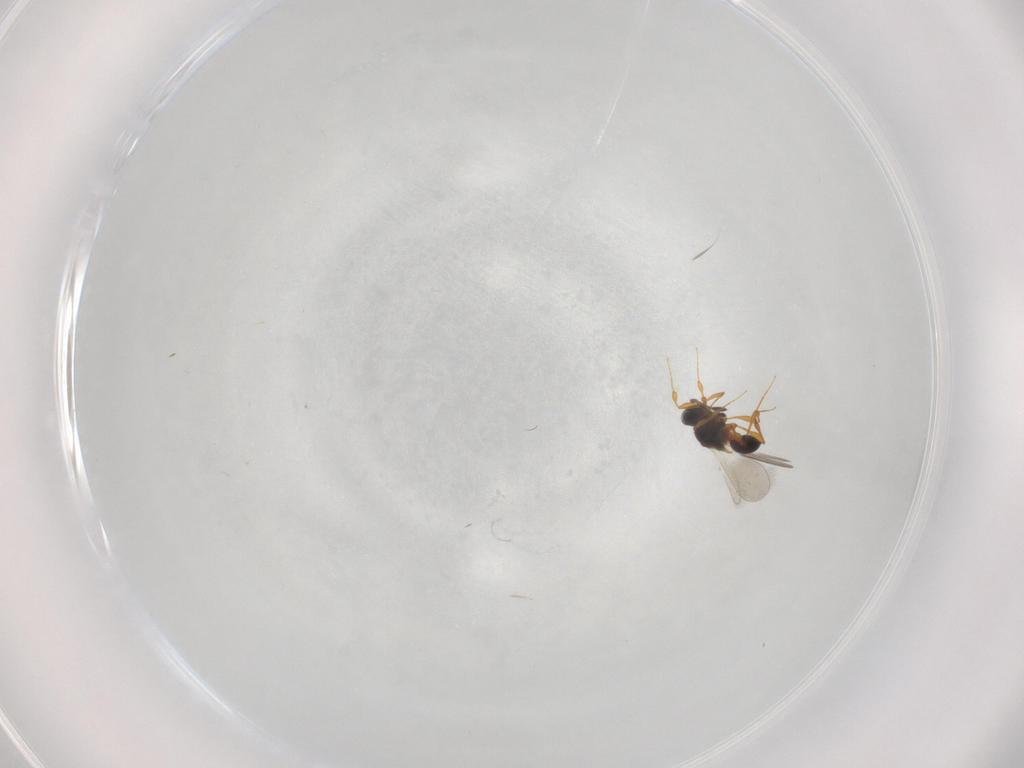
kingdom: Animalia
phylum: Arthropoda
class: Insecta
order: Hymenoptera
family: Platygastridae
